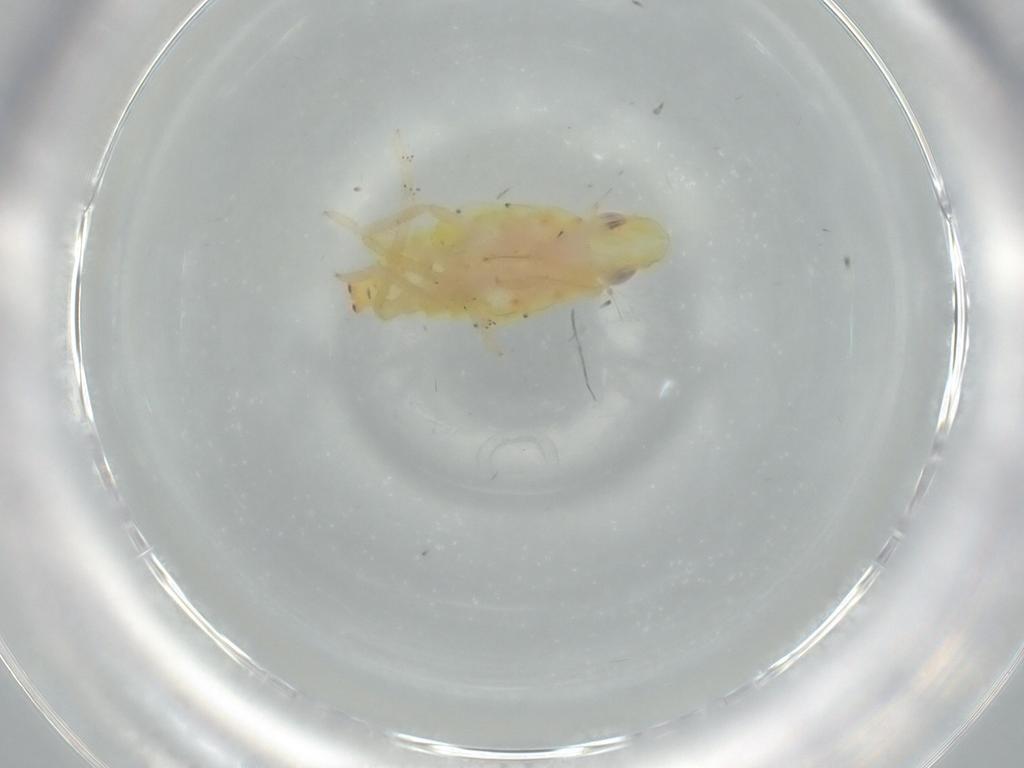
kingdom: Animalia
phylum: Arthropoda
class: Insecta
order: Hemiptera
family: Tropiduchidae
